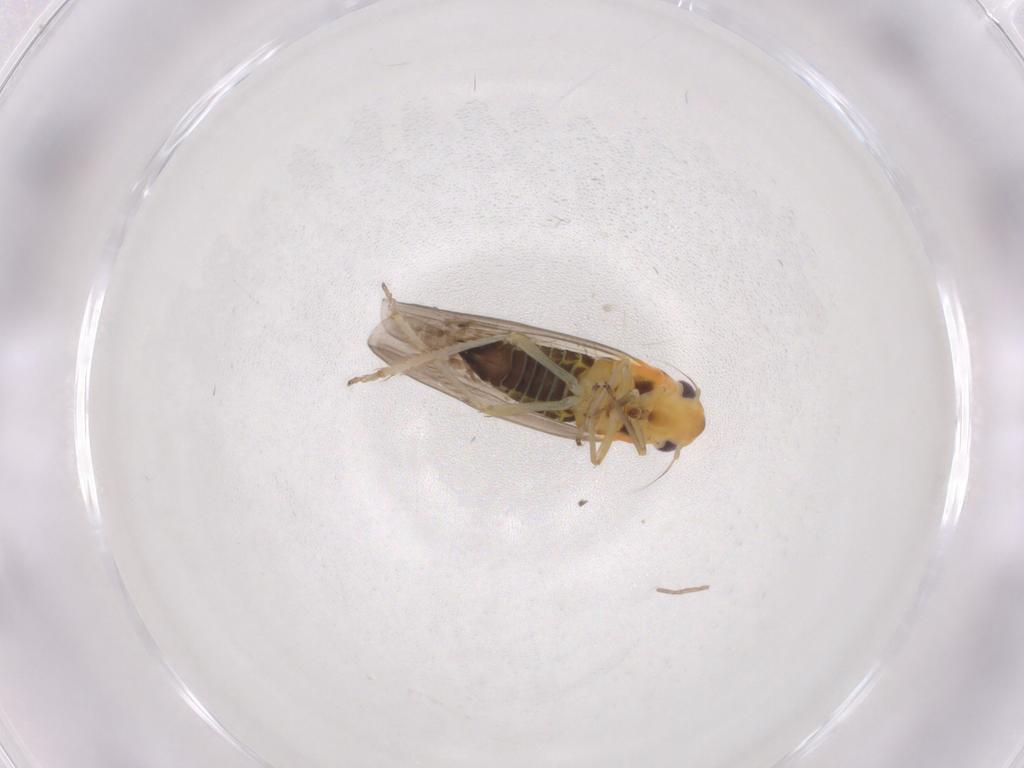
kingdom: Animalia
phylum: Arthropoda
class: Insecta
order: Hemiptera
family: Cicadellidae
